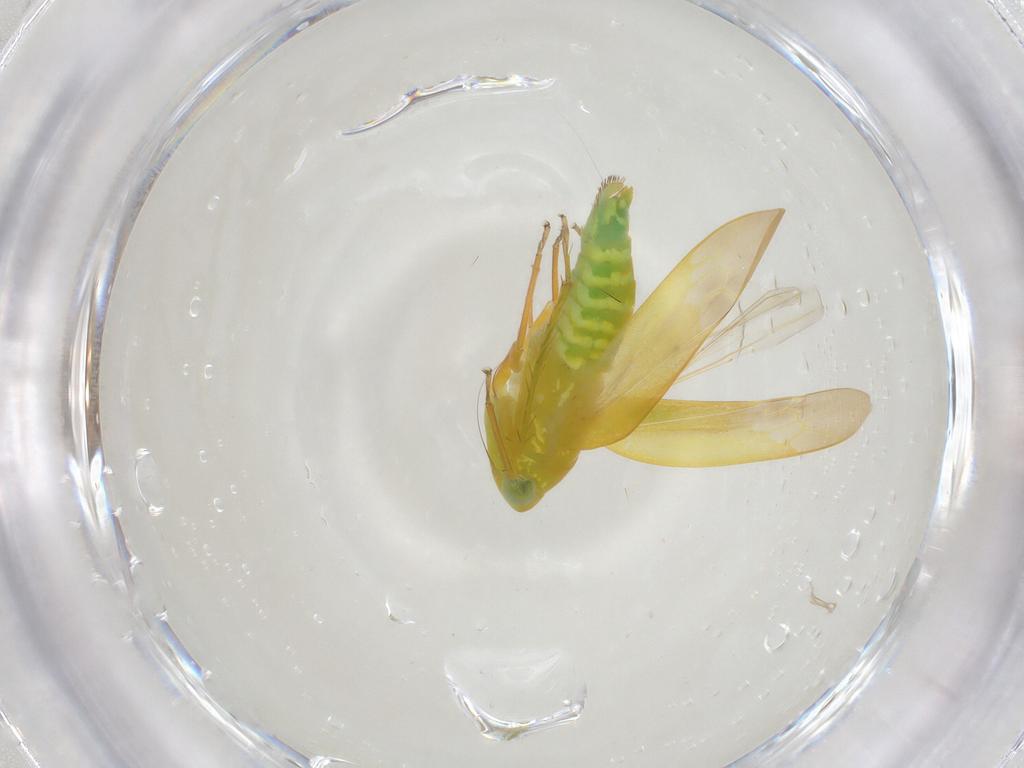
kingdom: Animalia
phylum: Arthropoda
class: Insecta
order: Hemiptera
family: Cicadellidae
